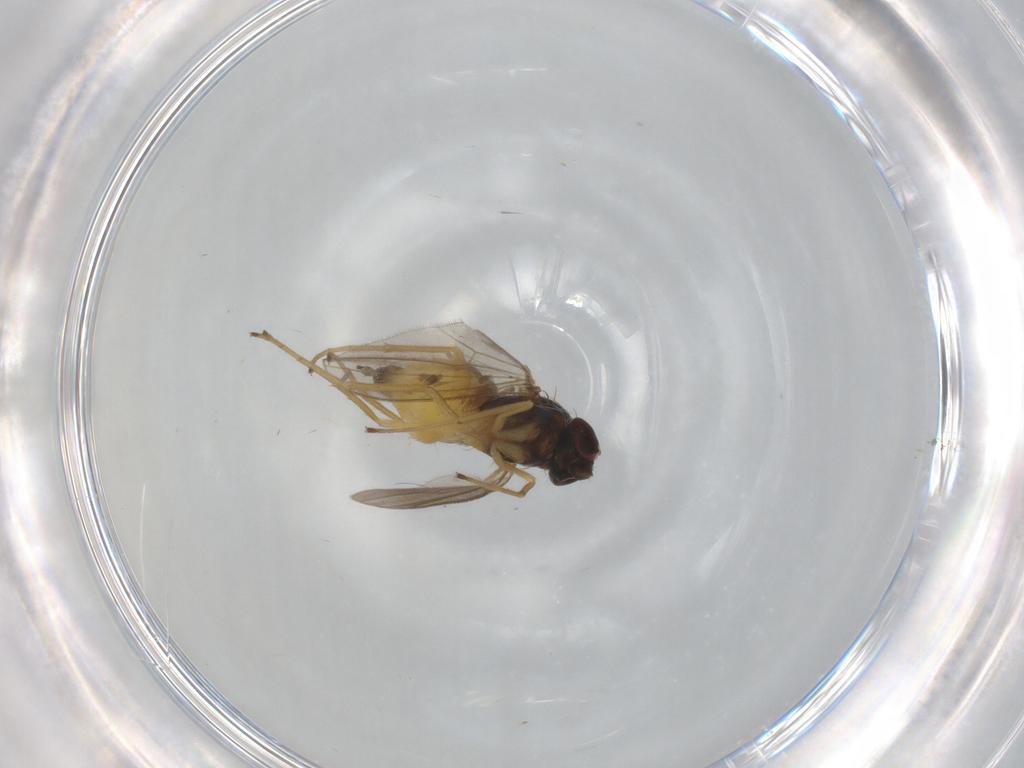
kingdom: Animalia
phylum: Arthropoda
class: Insecta
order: Diptera
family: Dolichopodidae
